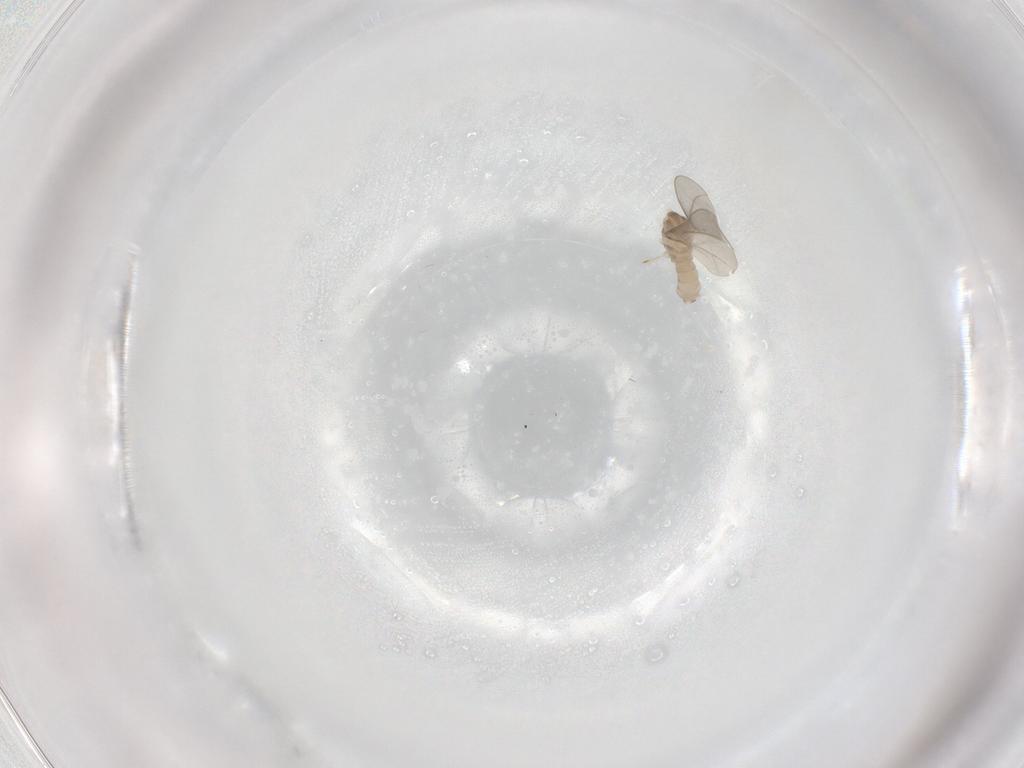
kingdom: Animalia
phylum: Arthropoda
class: Insecta
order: Diptera
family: Cecidomyiidae
